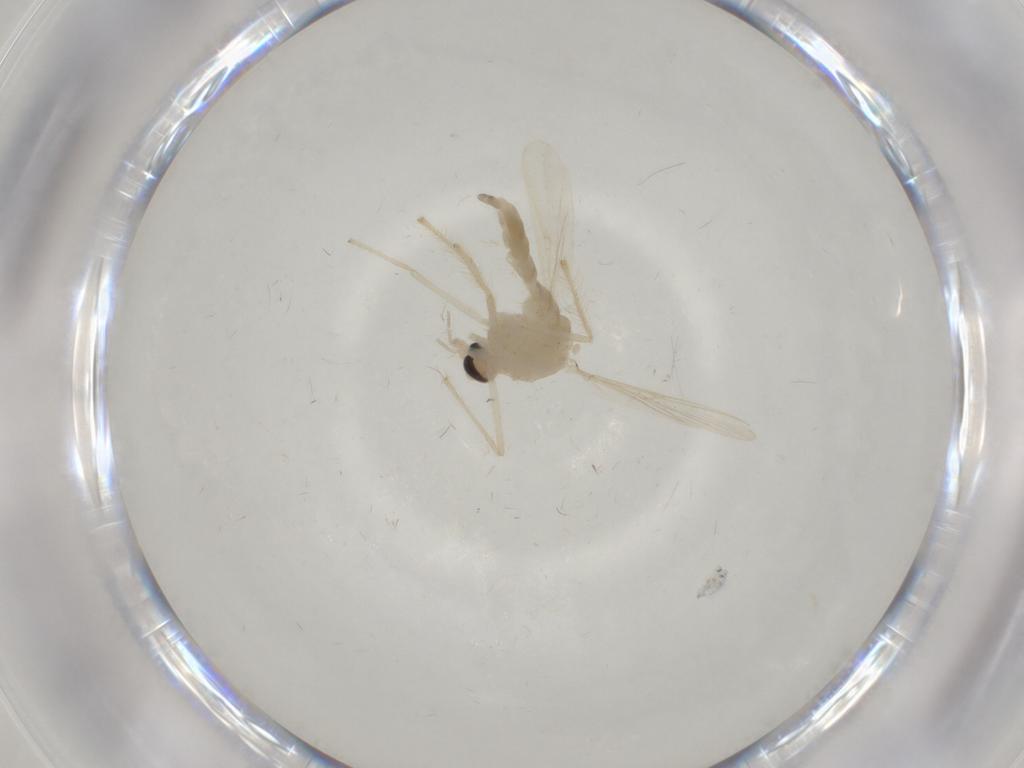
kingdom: Animalia
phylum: Arthropoda
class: Insecta
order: Diptera
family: Chironomidae
